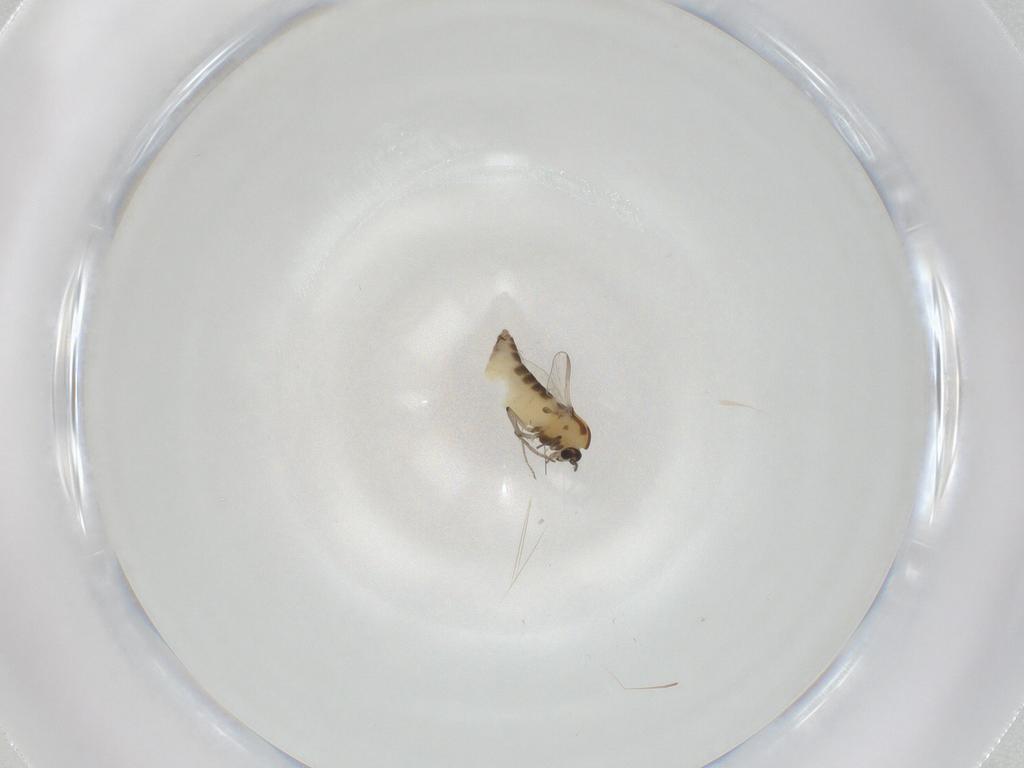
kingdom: Animalia
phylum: Arthropoda
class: Insecta
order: Diptera
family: Chironomidae
